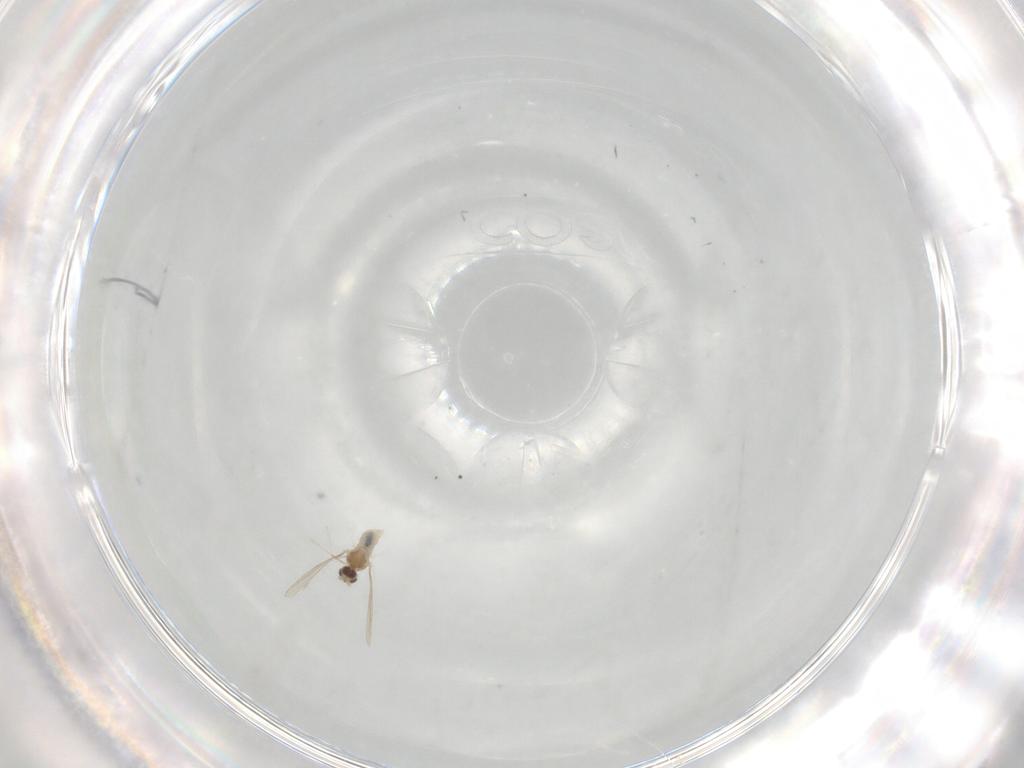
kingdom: Animalia
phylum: Arthropoda
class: Insecta
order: Diptera
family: Cecidomyiidae
